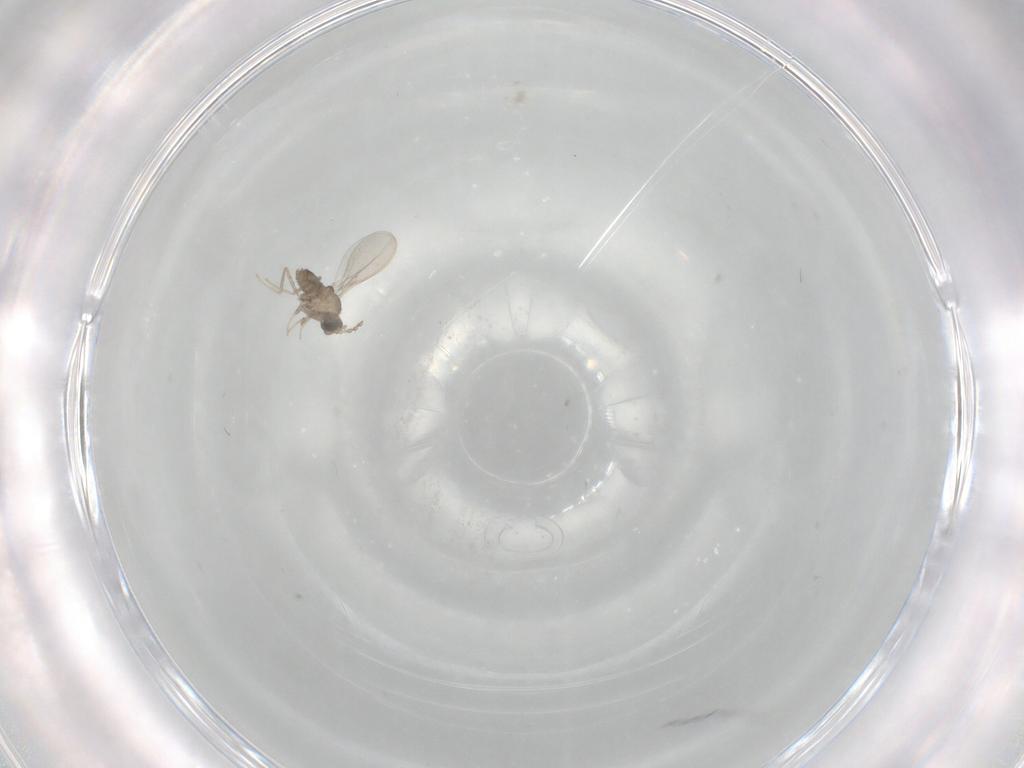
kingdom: Animalia
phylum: Arthropoda
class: Insecta
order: Diptera
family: Cecidomyiidae
